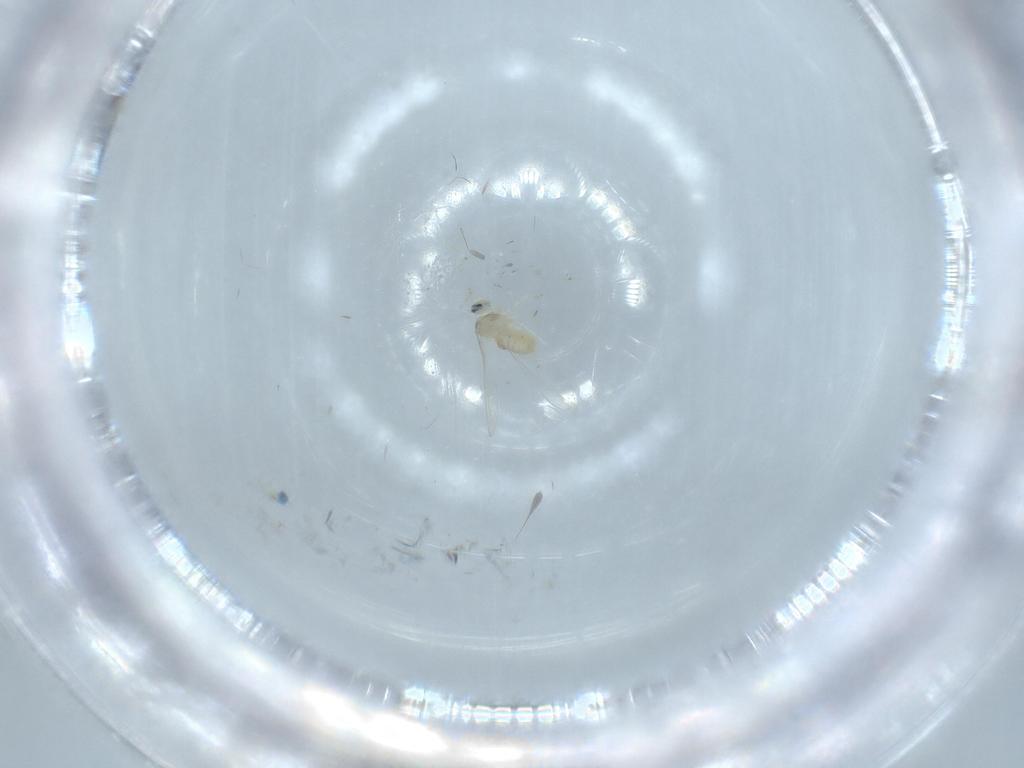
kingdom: Animalia
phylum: Arthropoda
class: Insecta
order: Diptera
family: Cecidomyiidae
